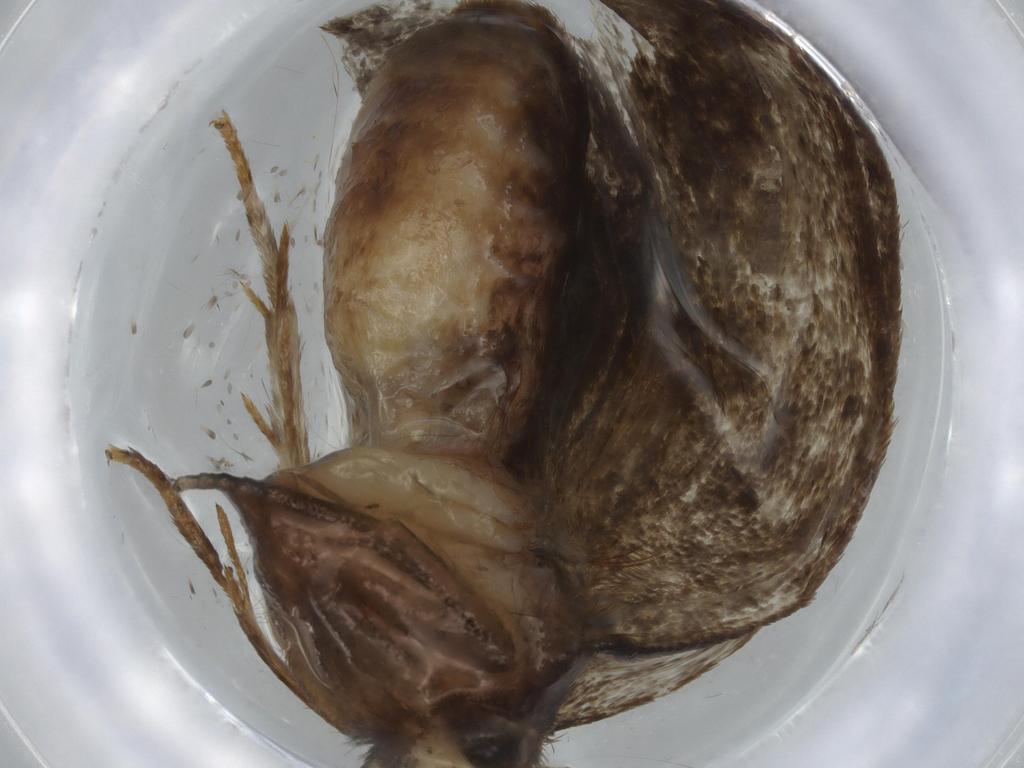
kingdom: Animalia
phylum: Arthropoda
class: Insecta
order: Lepidoptera
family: Tineidae
